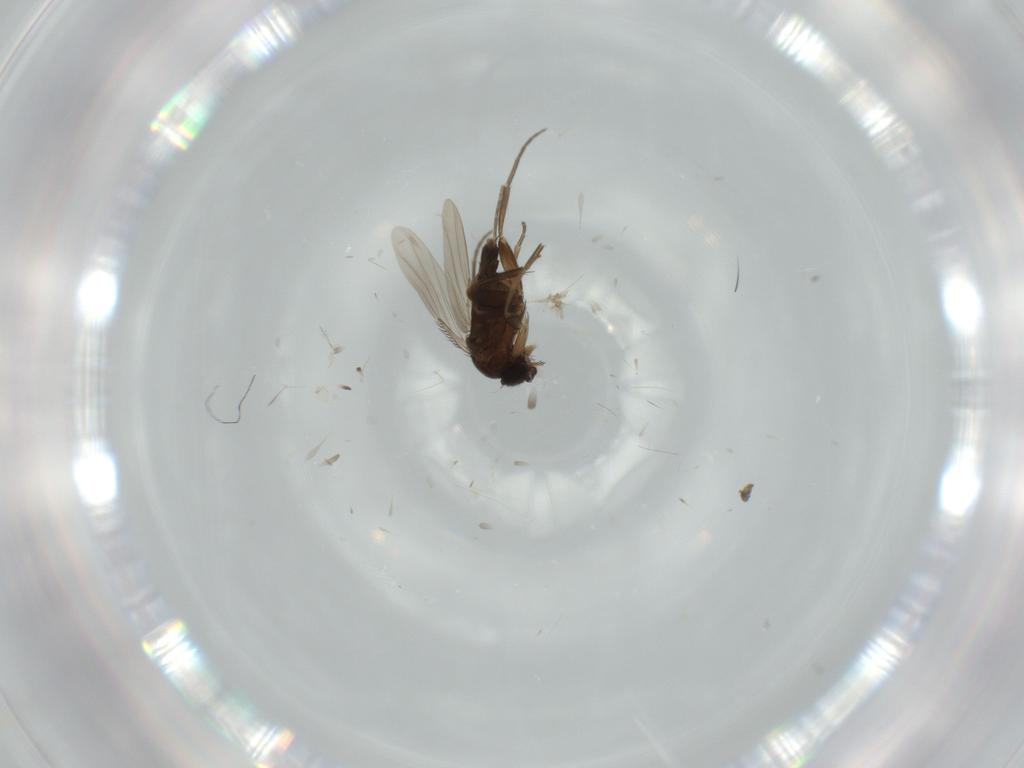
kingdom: Animalia
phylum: Arthropoda
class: Insecta
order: Diptera
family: Phoridae
